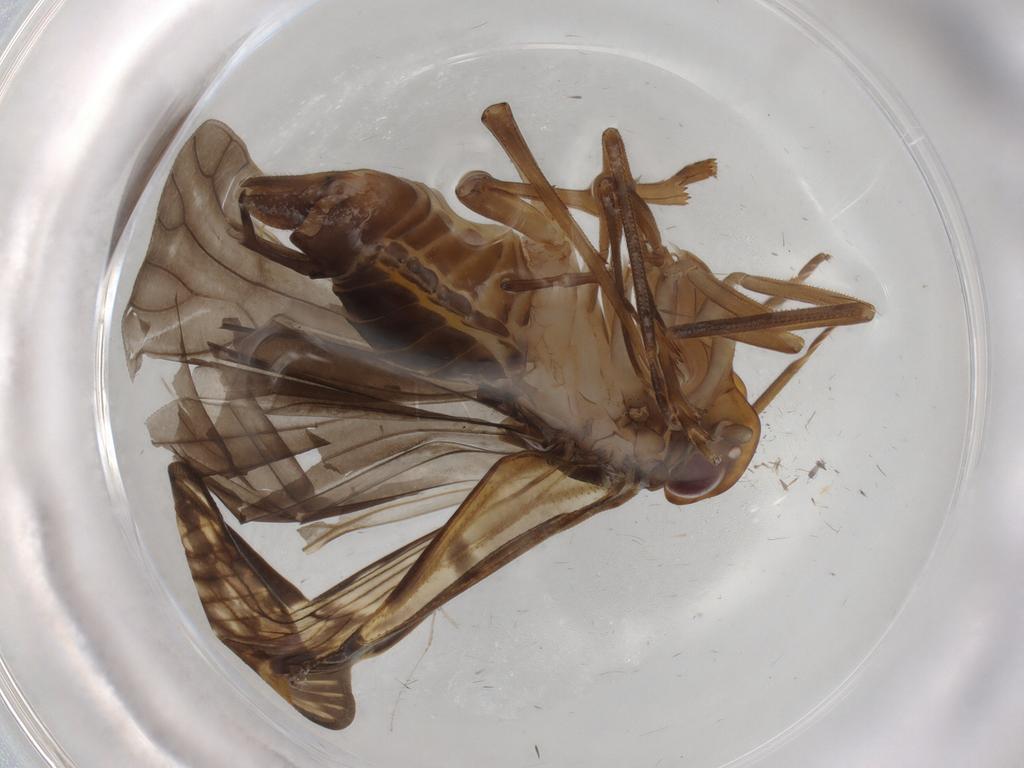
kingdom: Animalia
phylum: Arthropoda
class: Insecta
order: Hemiptera
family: Cicadellidae
